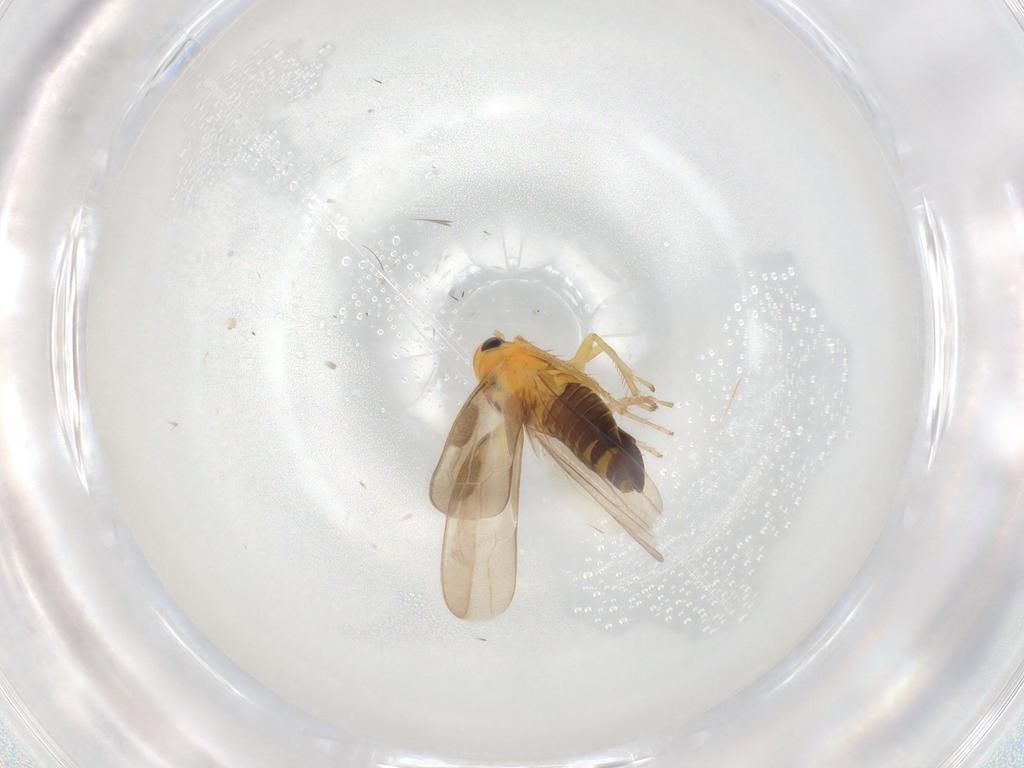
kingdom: Animalia
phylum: Arthropoda
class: Insecta
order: Hemiptera
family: Cicadellidae
